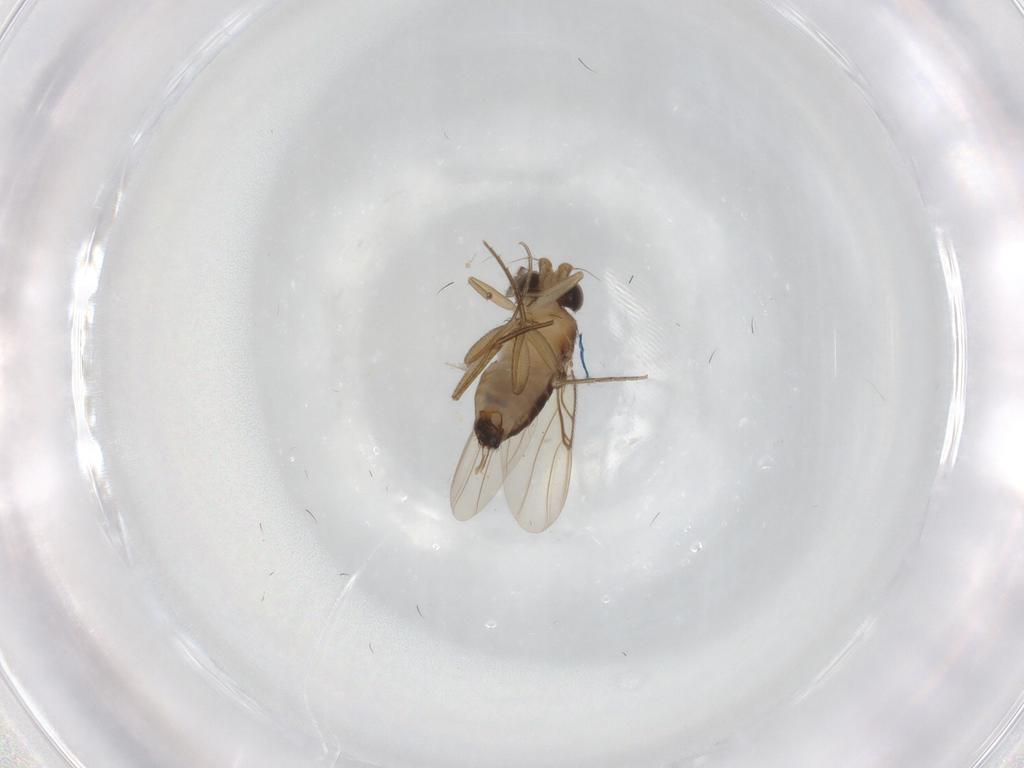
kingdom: Animalia
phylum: Arthropoda
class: Insecta
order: Diptera
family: Phoridae
